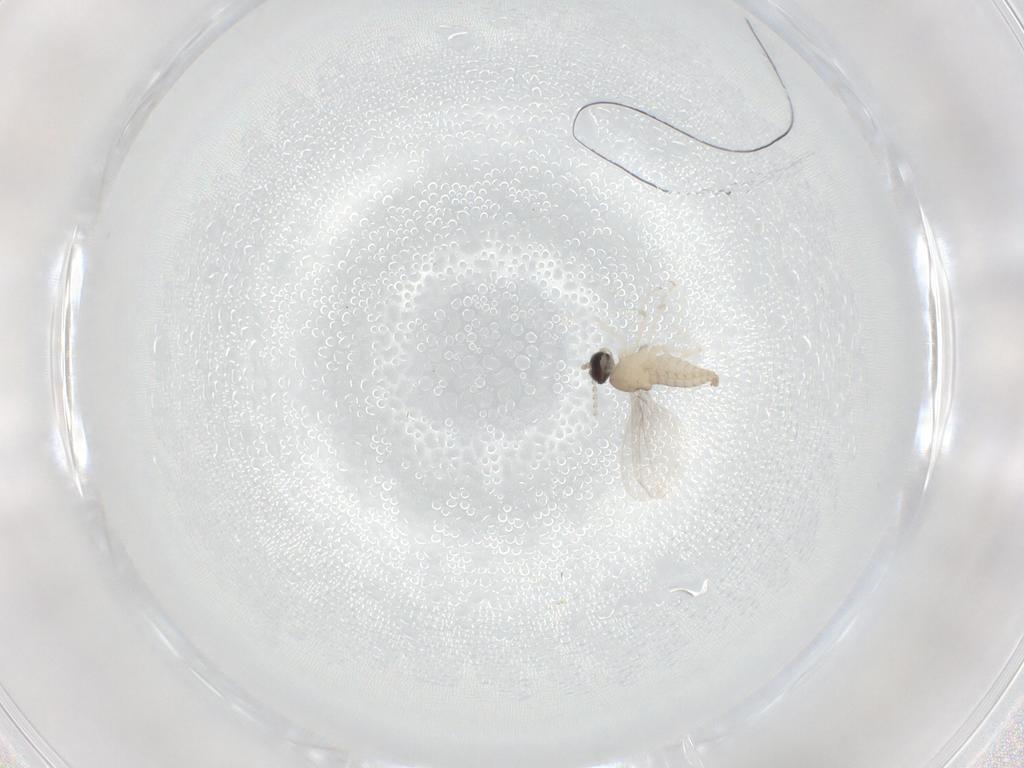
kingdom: Animalia
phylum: Arthropoda
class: Insecta
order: Diptera
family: Cecidomyiidae
